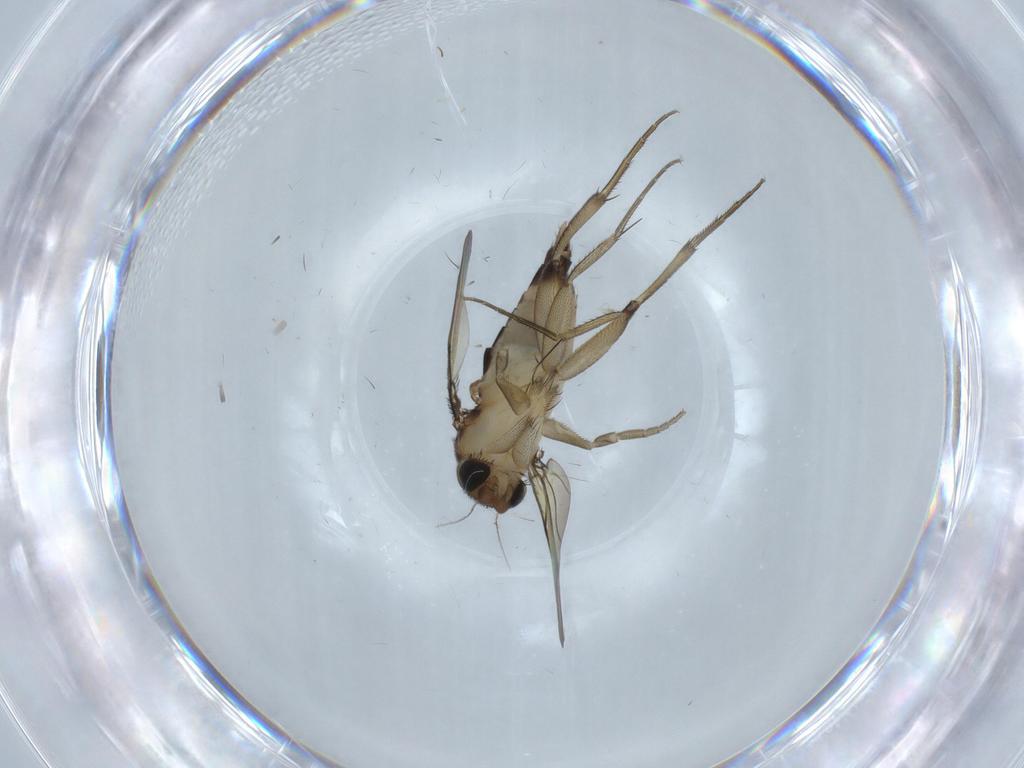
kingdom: Animalia
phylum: Arthropoda
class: Insecta
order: Diptera
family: Phoridae
